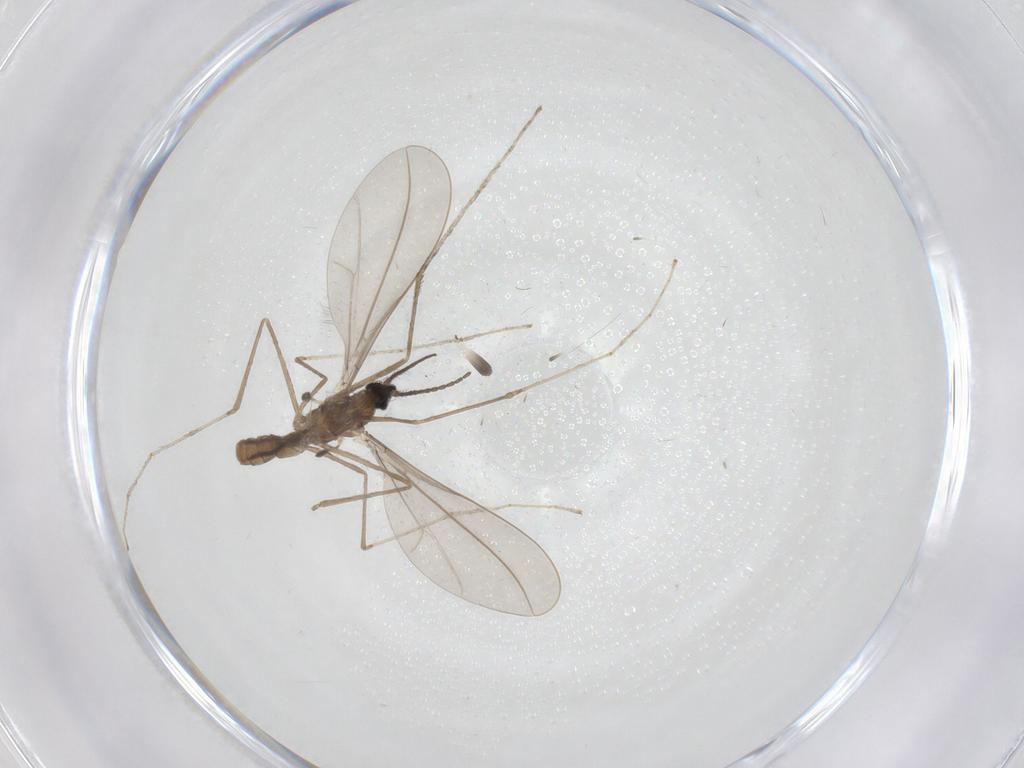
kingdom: Animalia
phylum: Arthropoda
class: Insecta
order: Diptera
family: Cecidomyiidae
